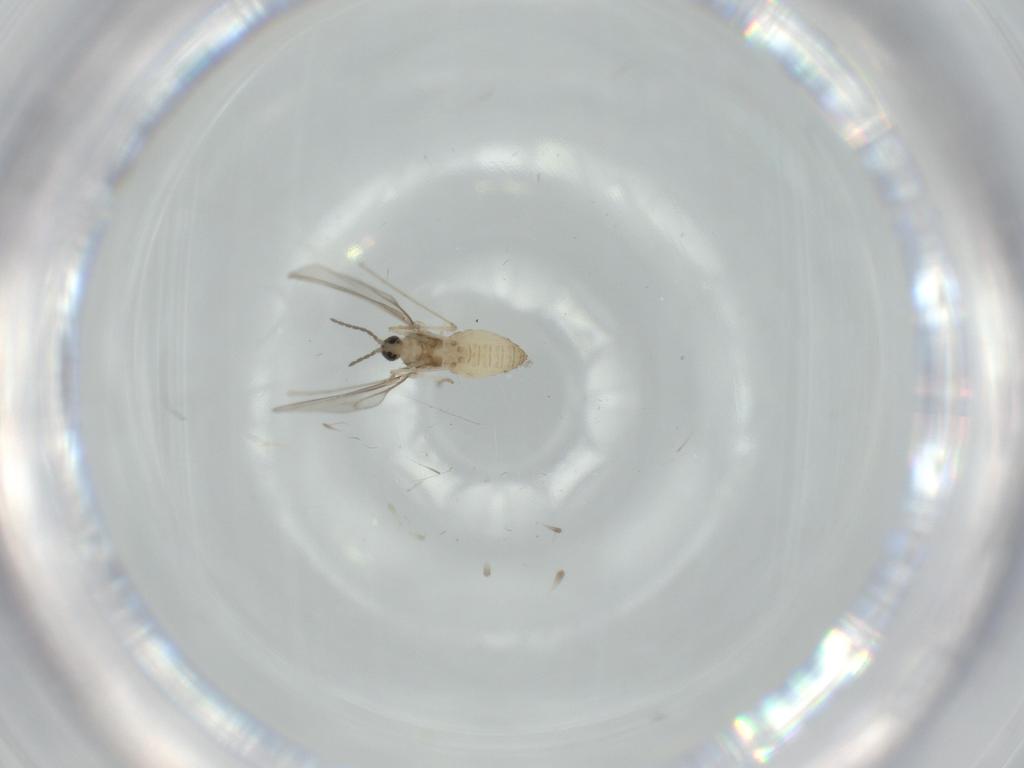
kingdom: Animalia
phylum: Arthropoda
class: Insecta
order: Diptera
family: Cecidomyiidae
